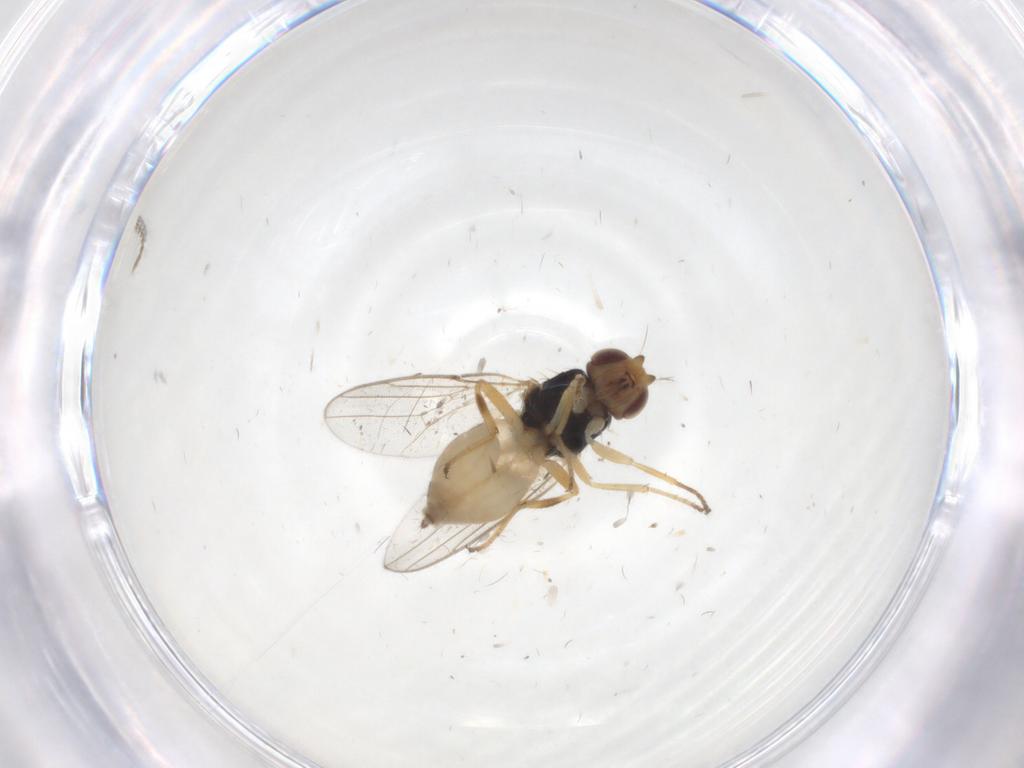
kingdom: Animalia
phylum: Arthropoda
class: Insecta
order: Diptera
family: Chloropidae
